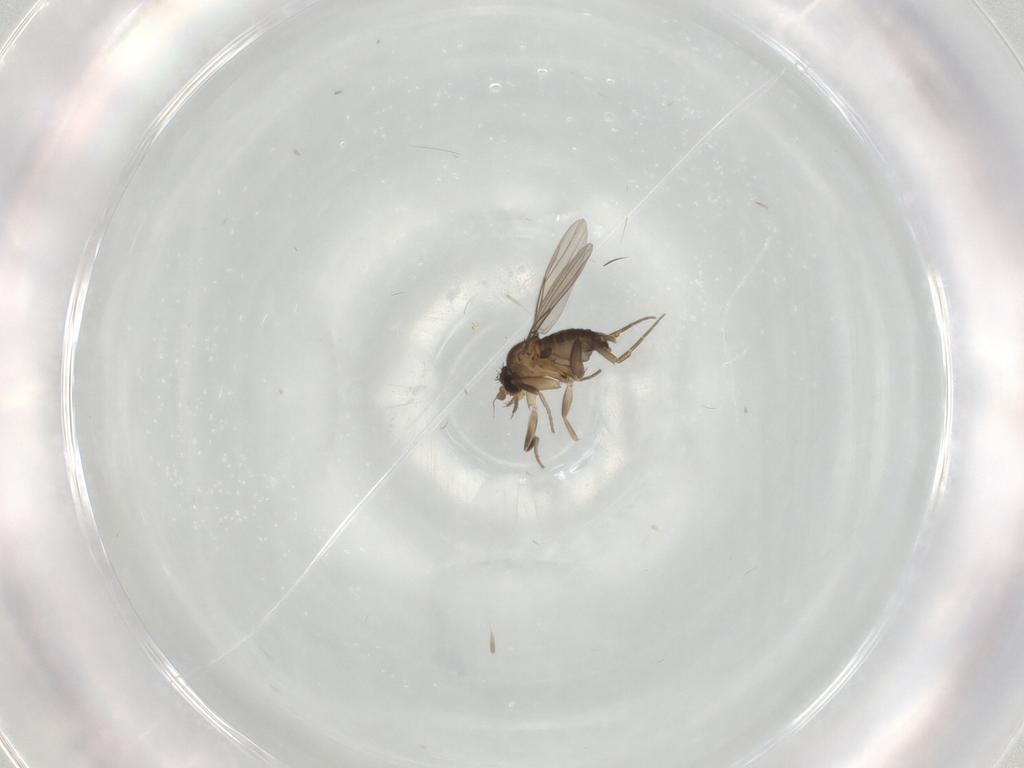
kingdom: Animalia
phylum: Arthropoda
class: Insecta
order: Diptera
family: Phoridae
